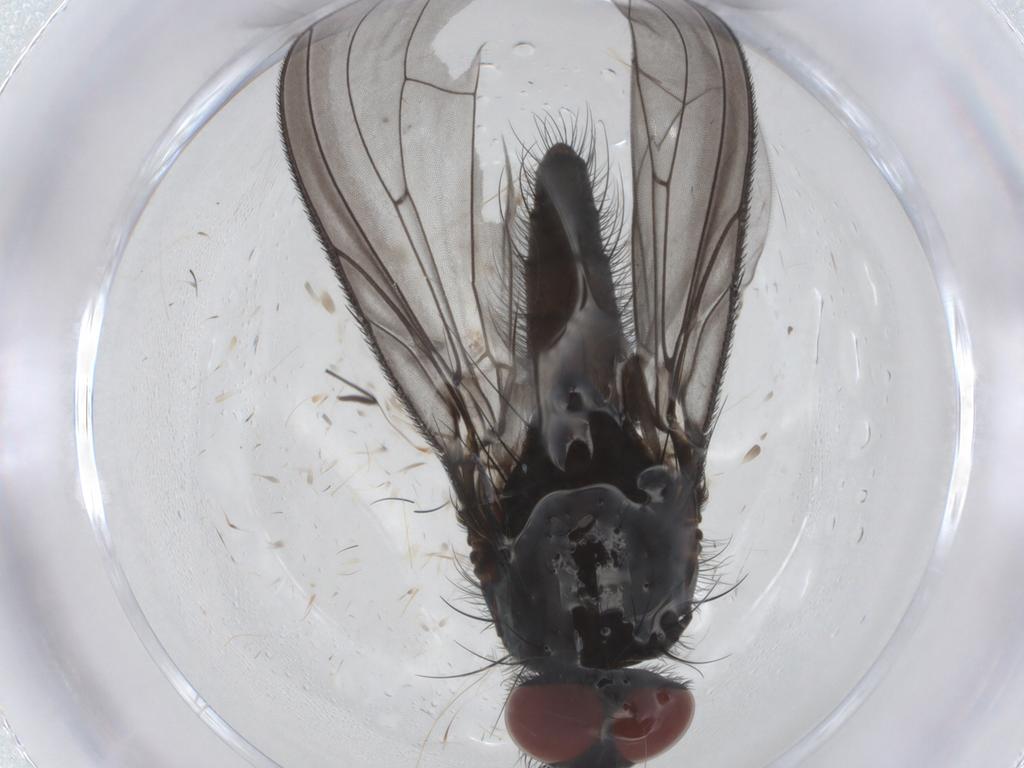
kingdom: Animalia
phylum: Arthropoda
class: Insecta
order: Diptera
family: Anthomyiidae
